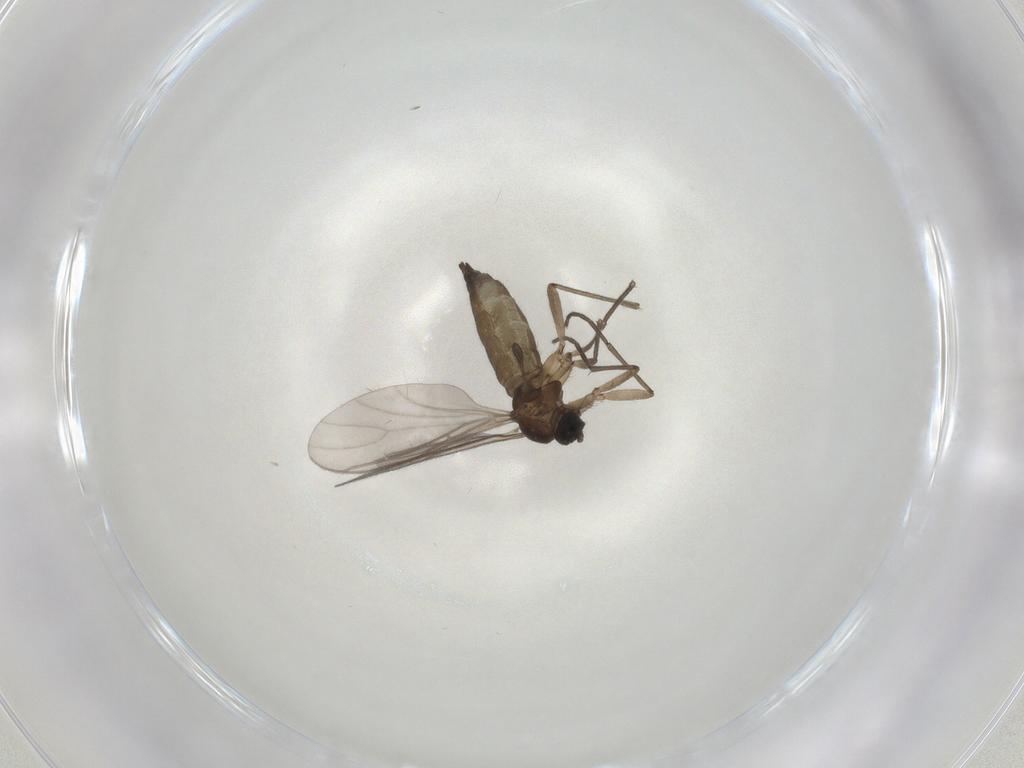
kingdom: Animalia
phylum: Arthropoda
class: Insecta
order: Diptera
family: Sciaridae
